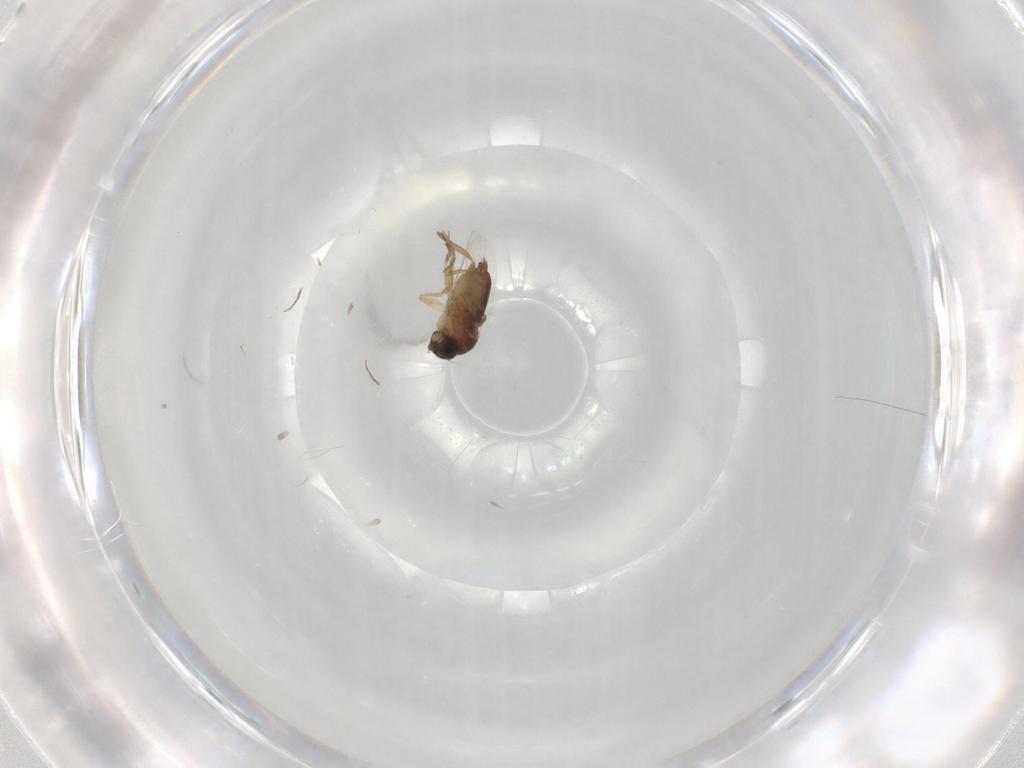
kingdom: Animalia
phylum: Arthropoda
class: Insecta
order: Diptera
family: Phoridae
